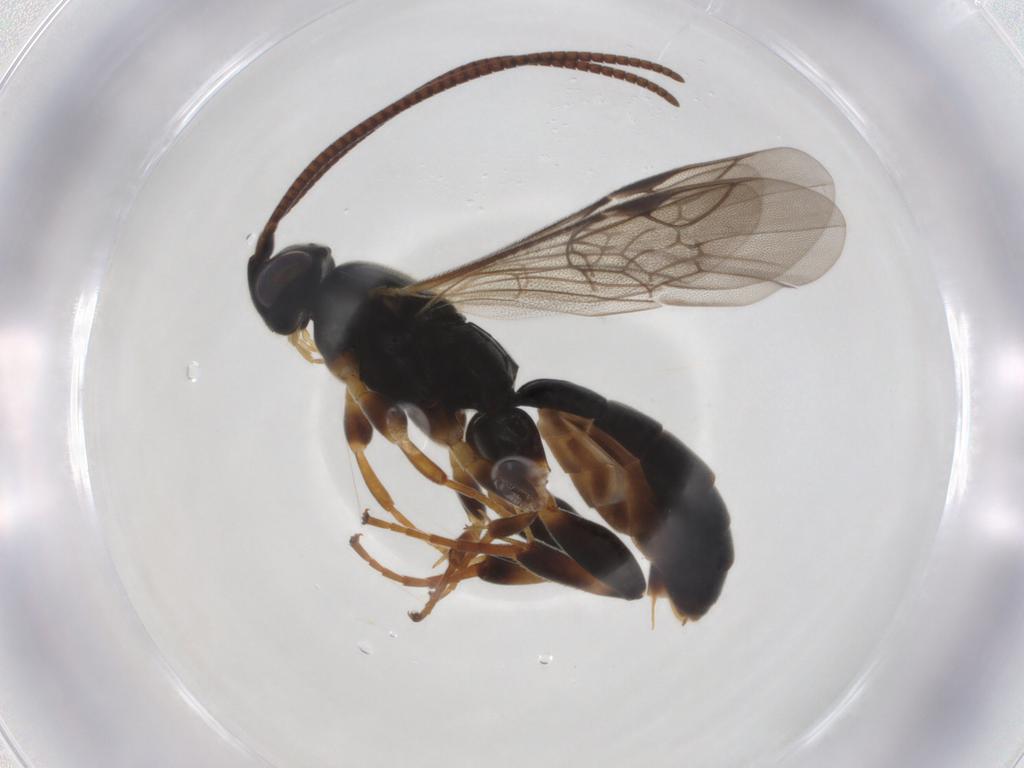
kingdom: Animalia
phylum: Arthropoda
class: Insecta
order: Hymenoptera
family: Ichneumonidae
